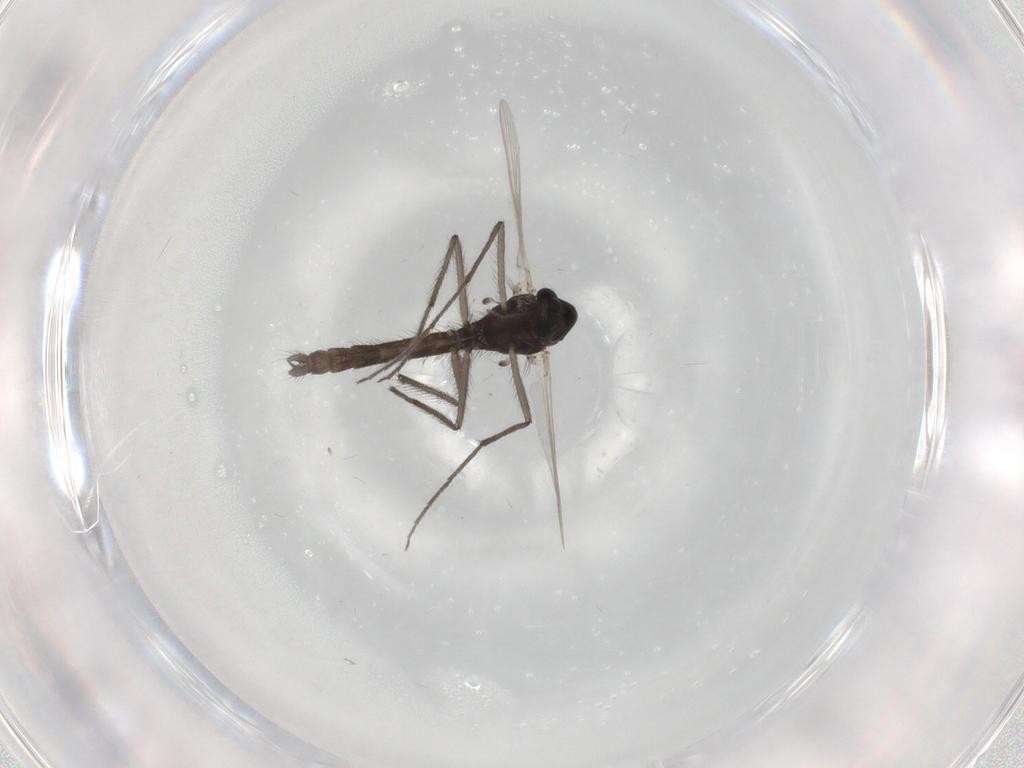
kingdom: Animalia
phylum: Arthropoda
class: Insecta
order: Diptera
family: Chironomidae
